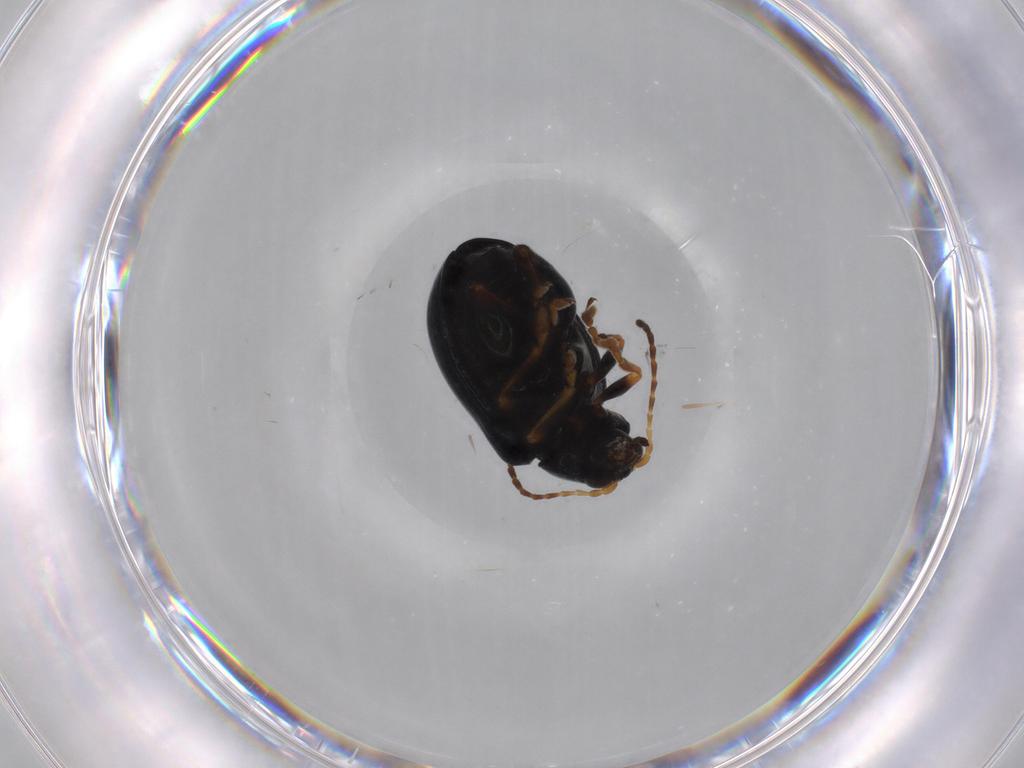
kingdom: Animalia
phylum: Arthropoda
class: Insecta
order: Coleoptera
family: Chrysomelidae
